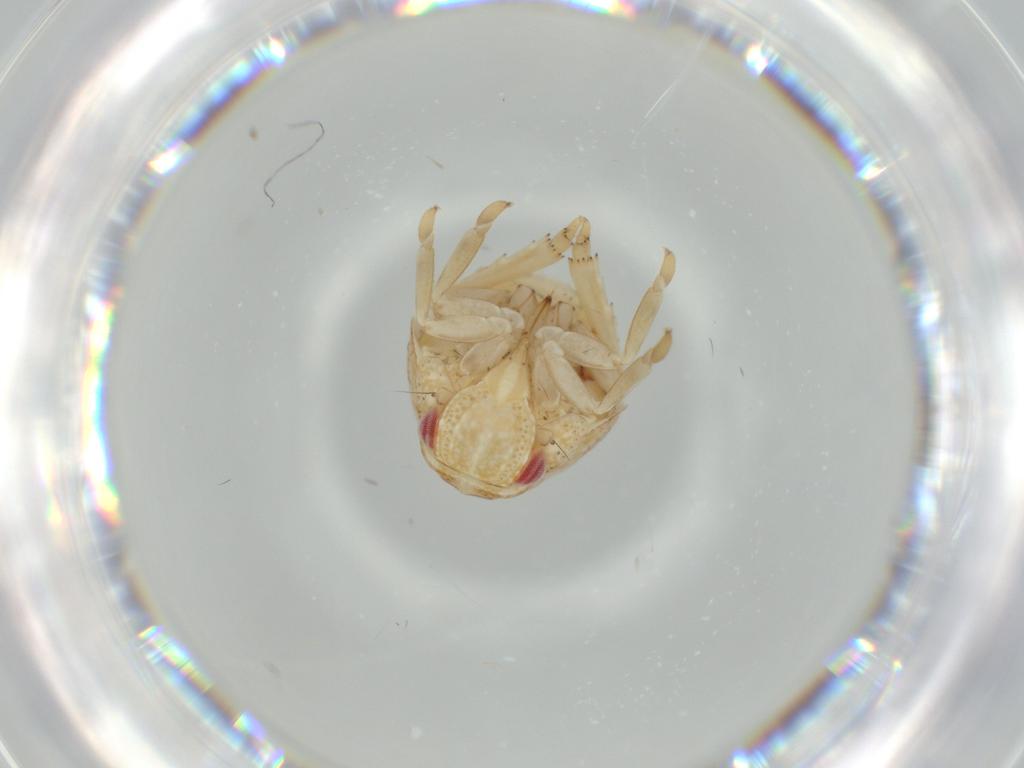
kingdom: Animalia
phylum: Arthropoda
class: Insecta
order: Hemiptera
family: Acanaloniidae
